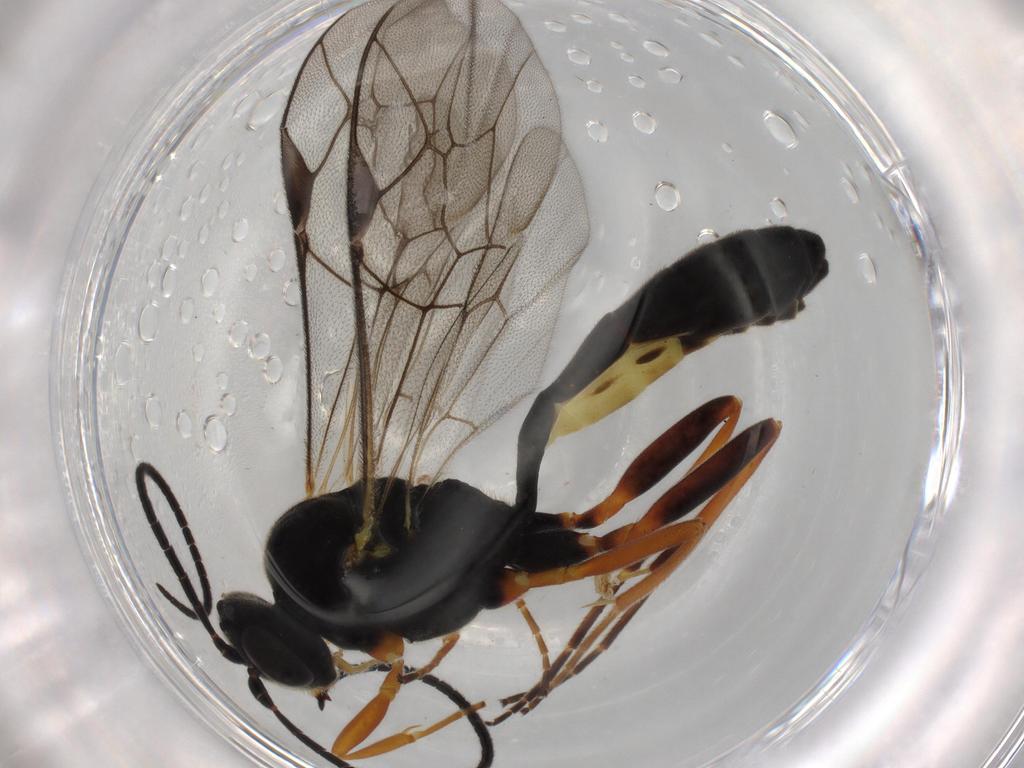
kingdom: Animalia
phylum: Arthropoda
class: Insecta
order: Hymenoptera
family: Ichneumonidae
